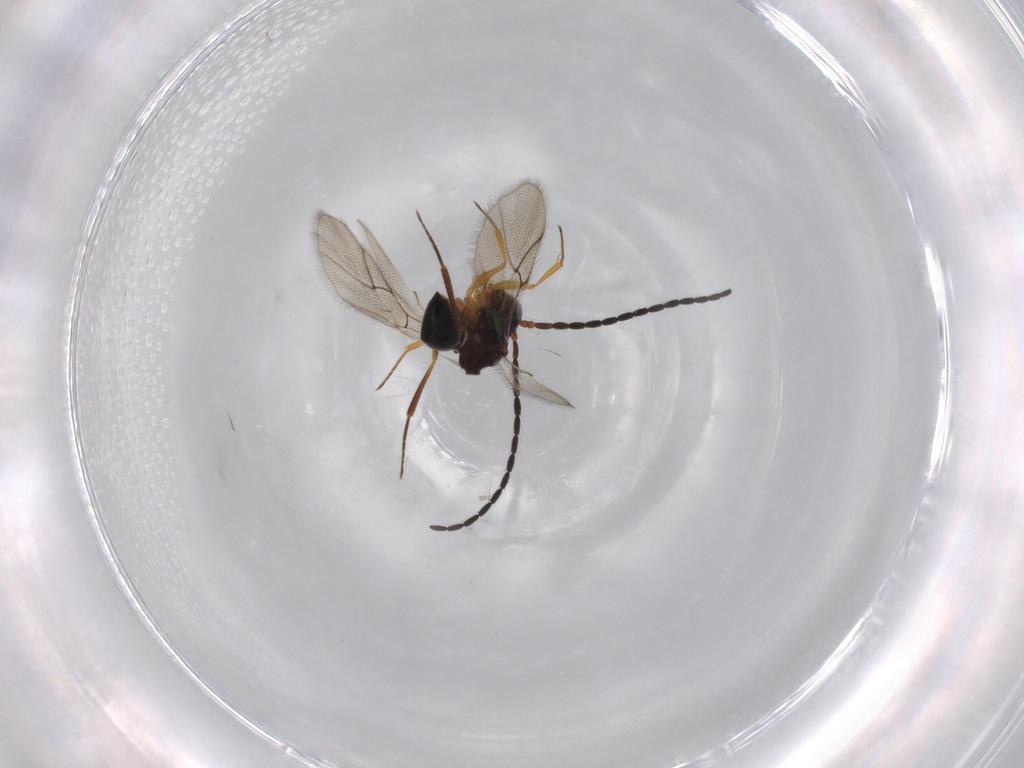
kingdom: Animalia
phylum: Arthropoda
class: Insecta
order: Hymenoptera
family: Figitidae
